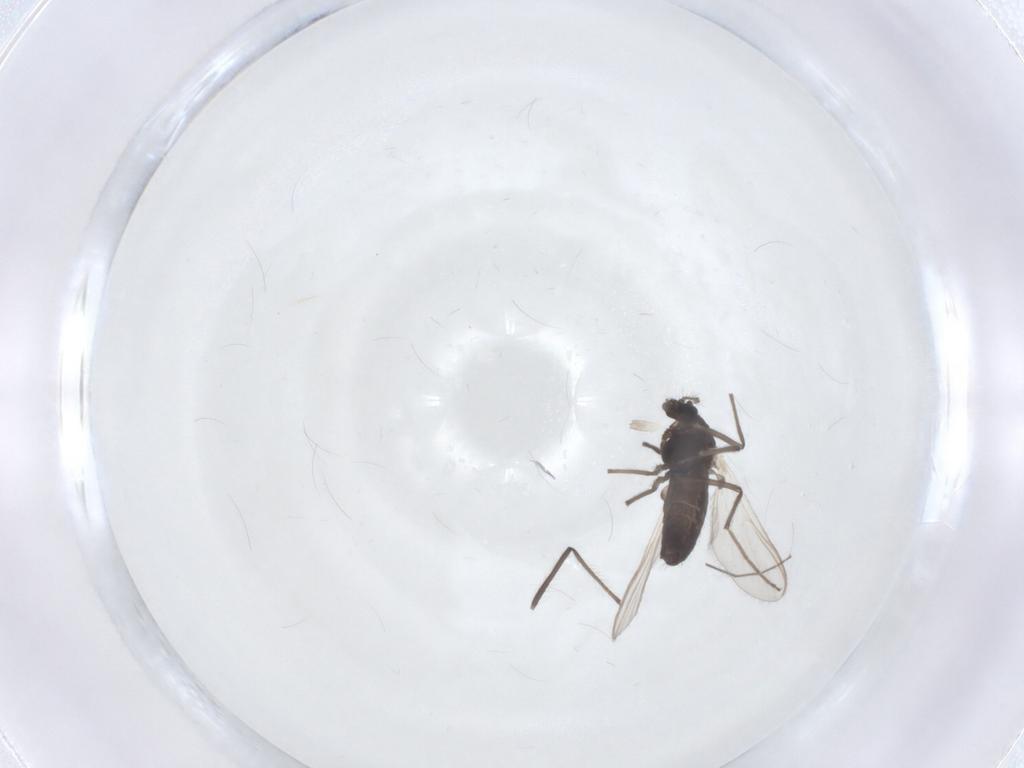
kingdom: Animalia
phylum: Arthropoda
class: Insecta
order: Diptera
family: Chironomidae
